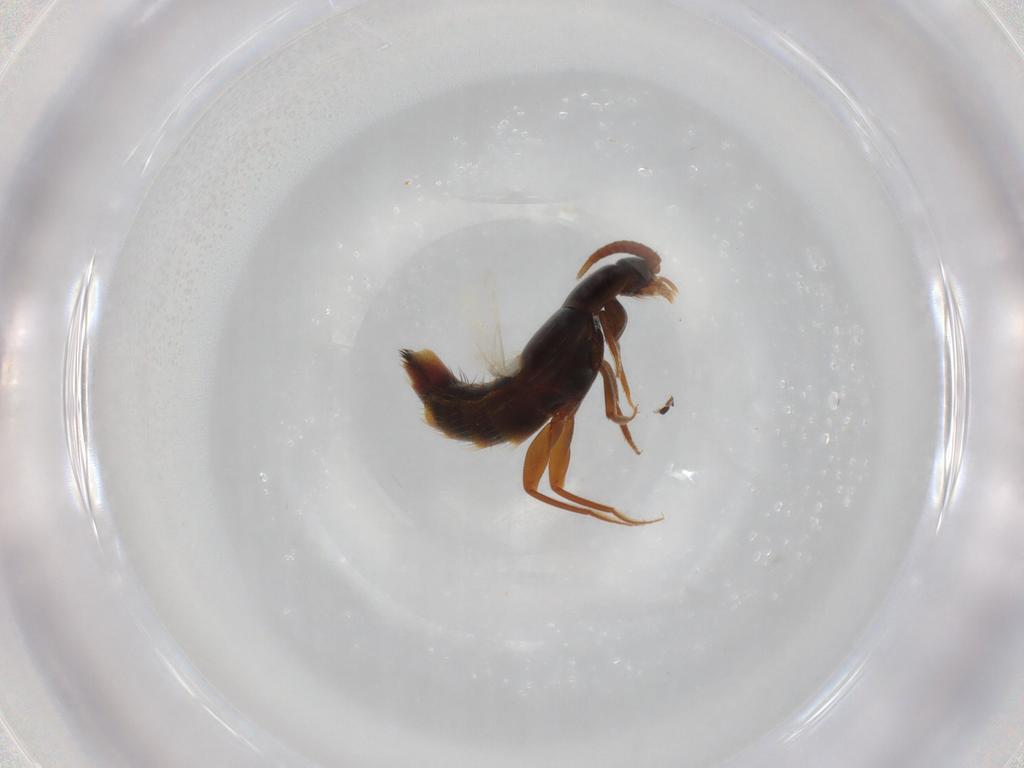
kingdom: Animalia
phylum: Arthropoda
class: Insecta
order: Coleoptera
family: Staphylinidae
